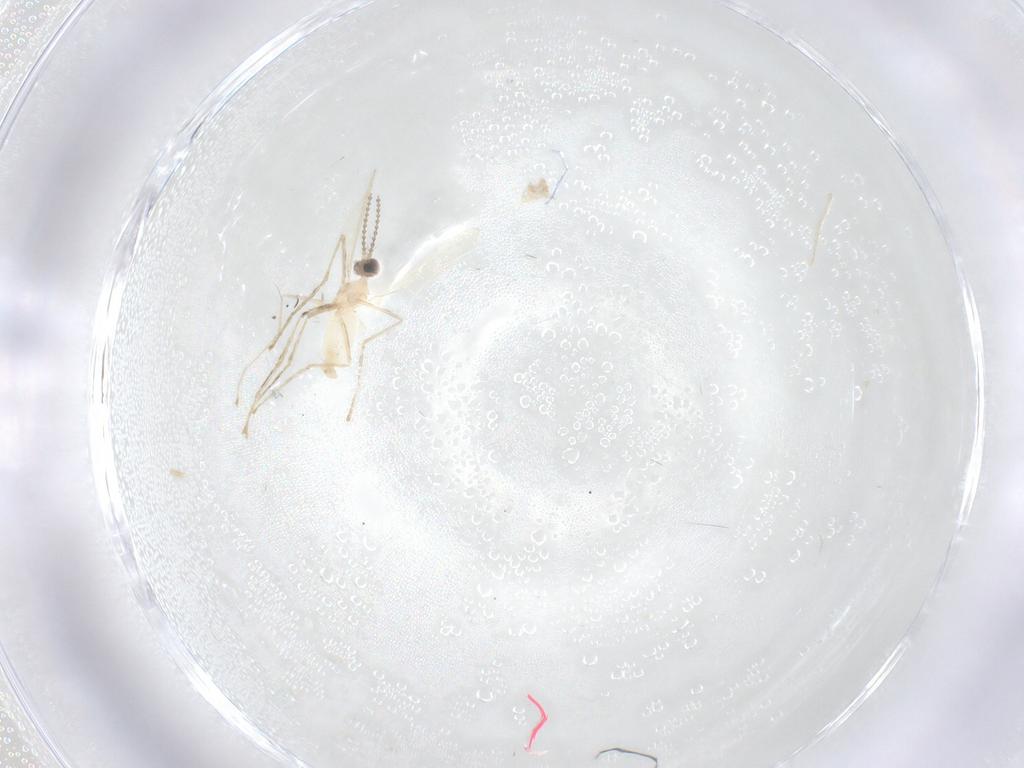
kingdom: Animalia
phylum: Arthropoda
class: Insecta
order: Diptera
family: Cecidomyiidae
